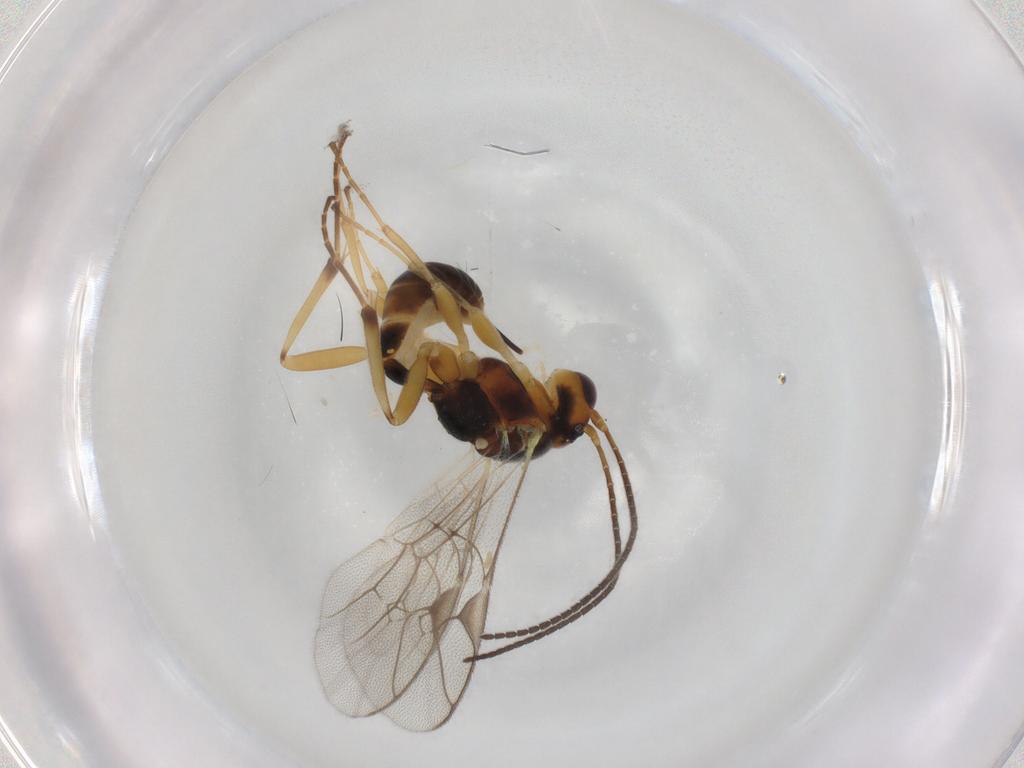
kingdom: Animalia
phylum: Arthropoda
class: Insecta
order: Hymenoptera
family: Ichneumonidae
